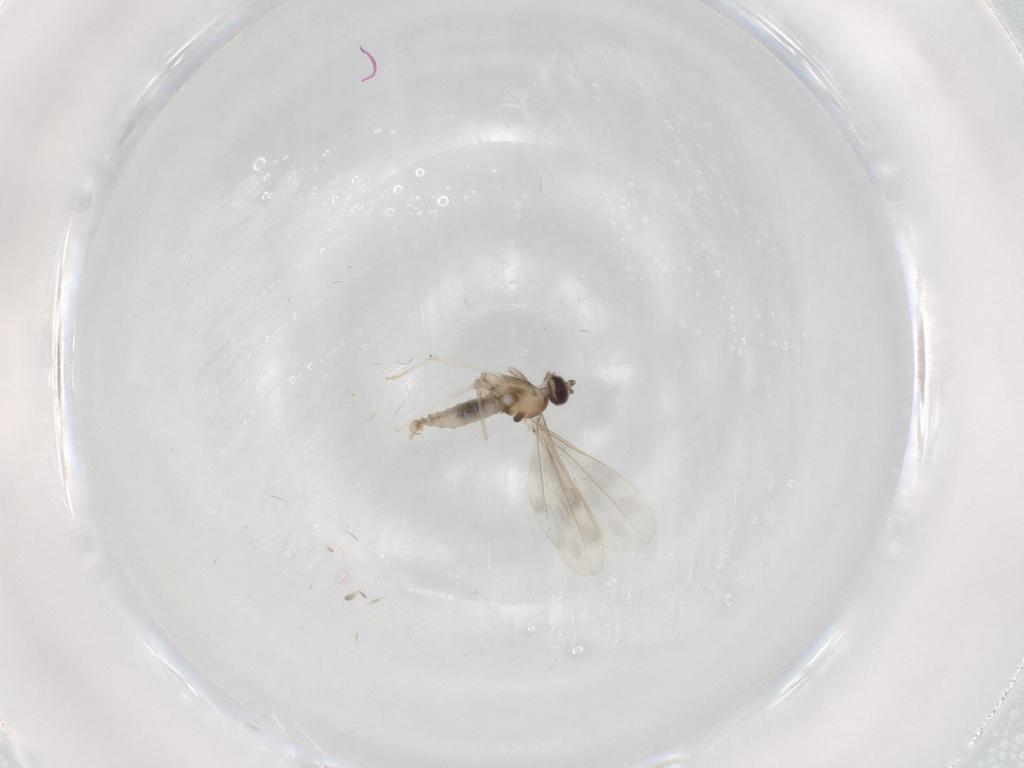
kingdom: Animalia
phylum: Arthropoda
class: Insecta
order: Diptera
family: Cecidomyiidae
